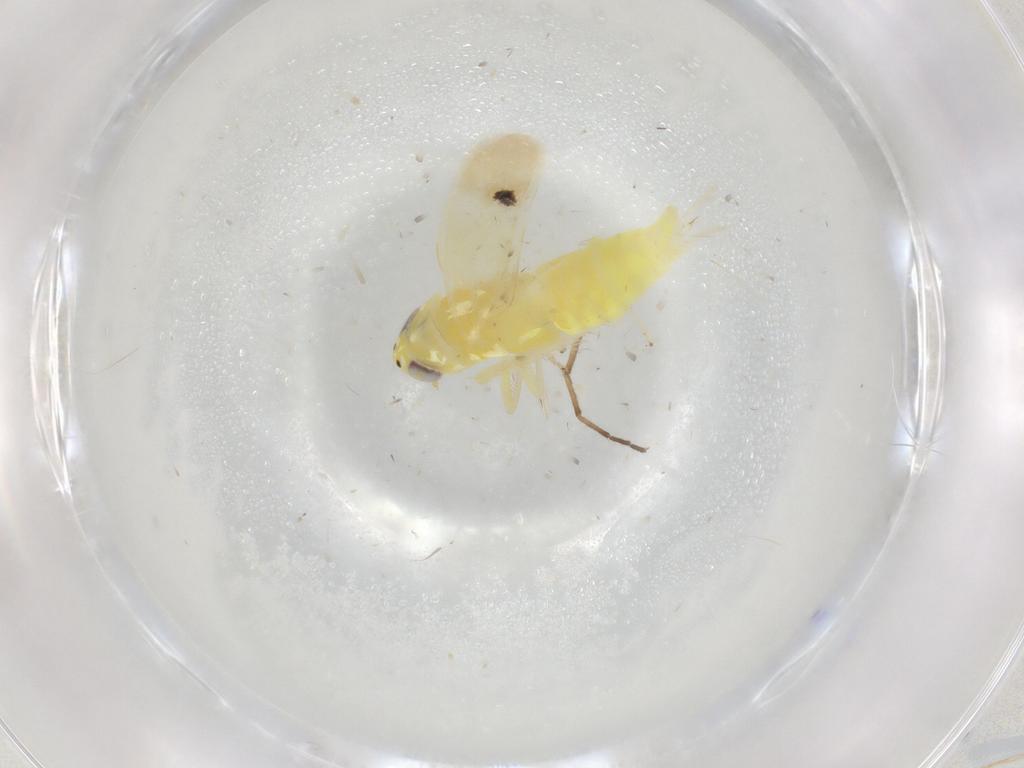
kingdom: Animalia
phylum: Arthropoda
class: Insecta
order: Hemiptera
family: Cicadellidae
